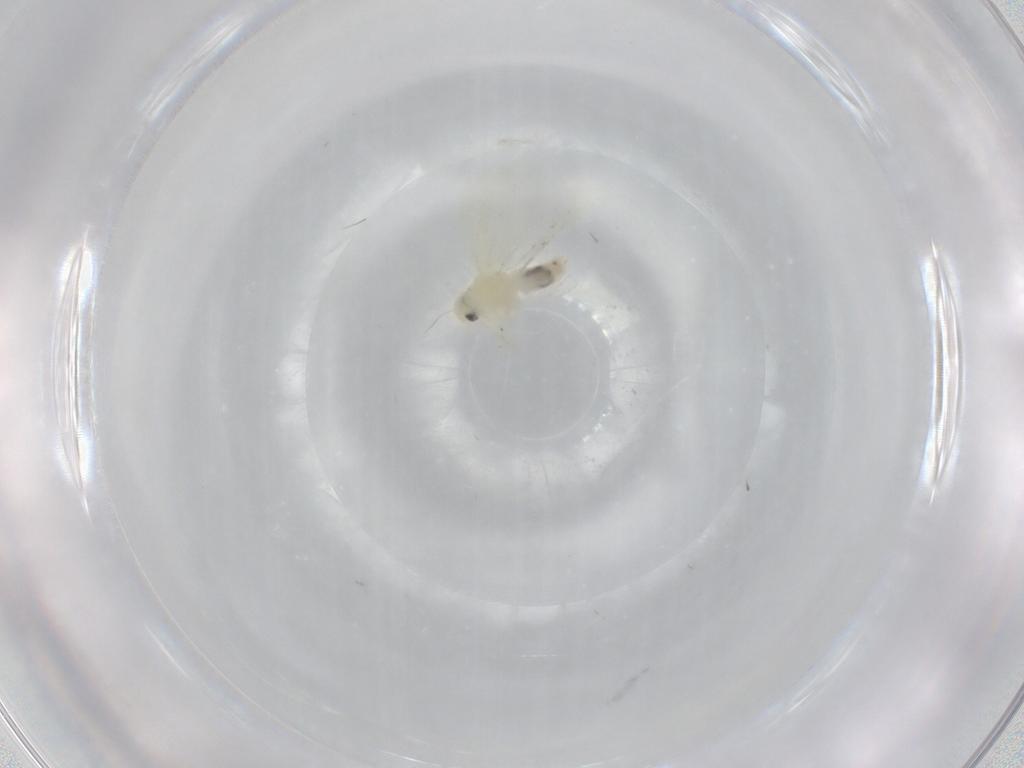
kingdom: Animalia
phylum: Arthropoda
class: Insecta
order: Hemiptera
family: Aleyrodidae
